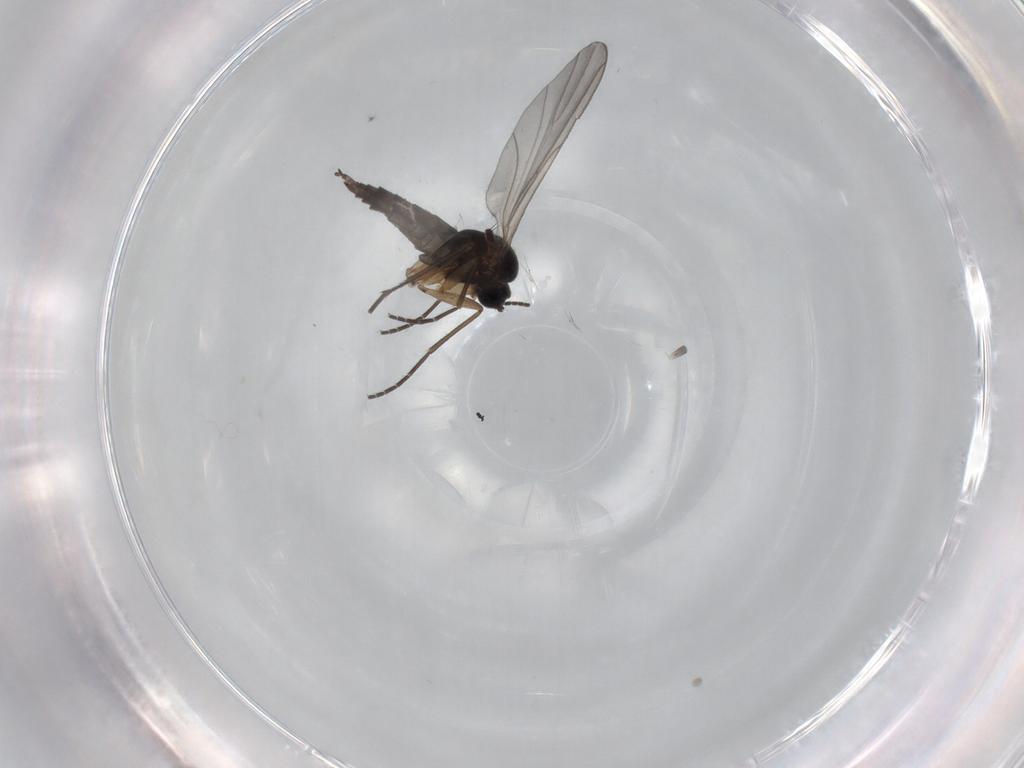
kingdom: Animalia
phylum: Arthropoda
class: Insecta
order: Diptera
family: Sciaridae
